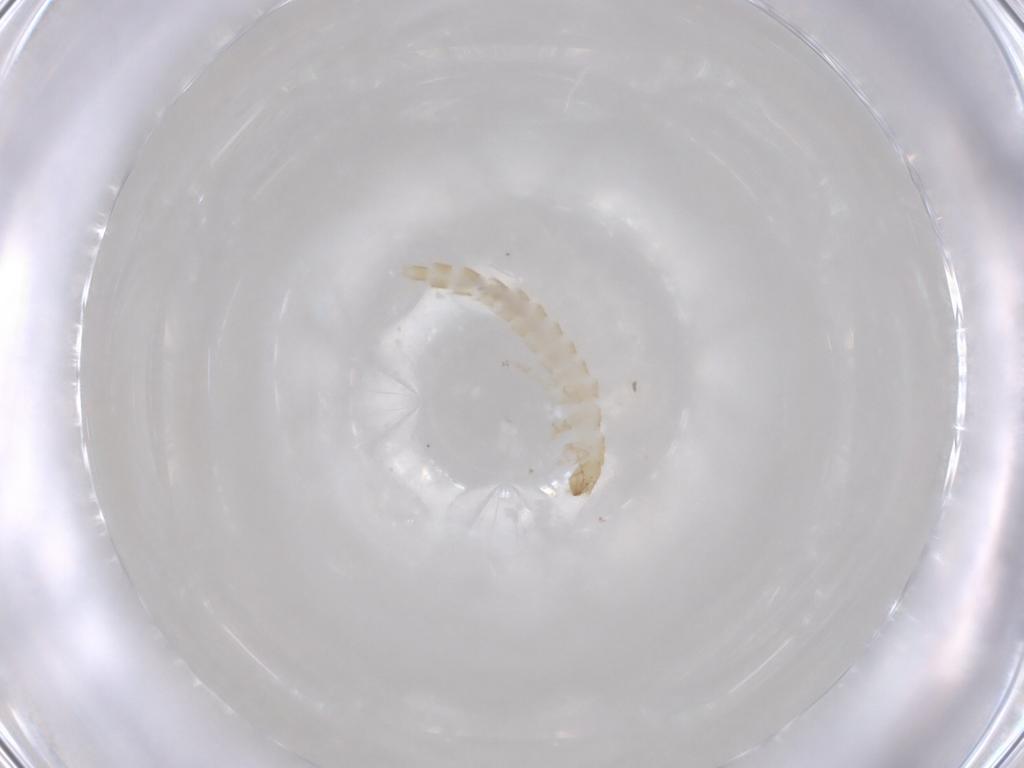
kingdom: Animalia
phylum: Arthropoda
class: Insecta
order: Coleoptera
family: Staphylinidae
